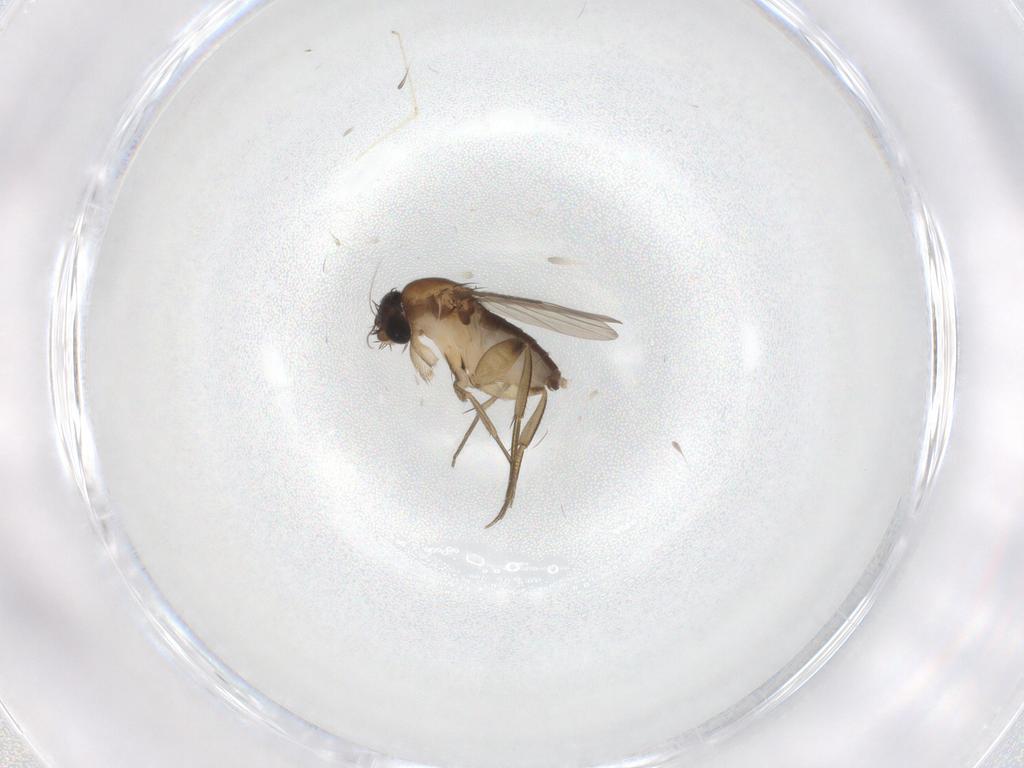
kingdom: Animalia
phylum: Arthropoda
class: Insecta
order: Diptera
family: Phoridae
